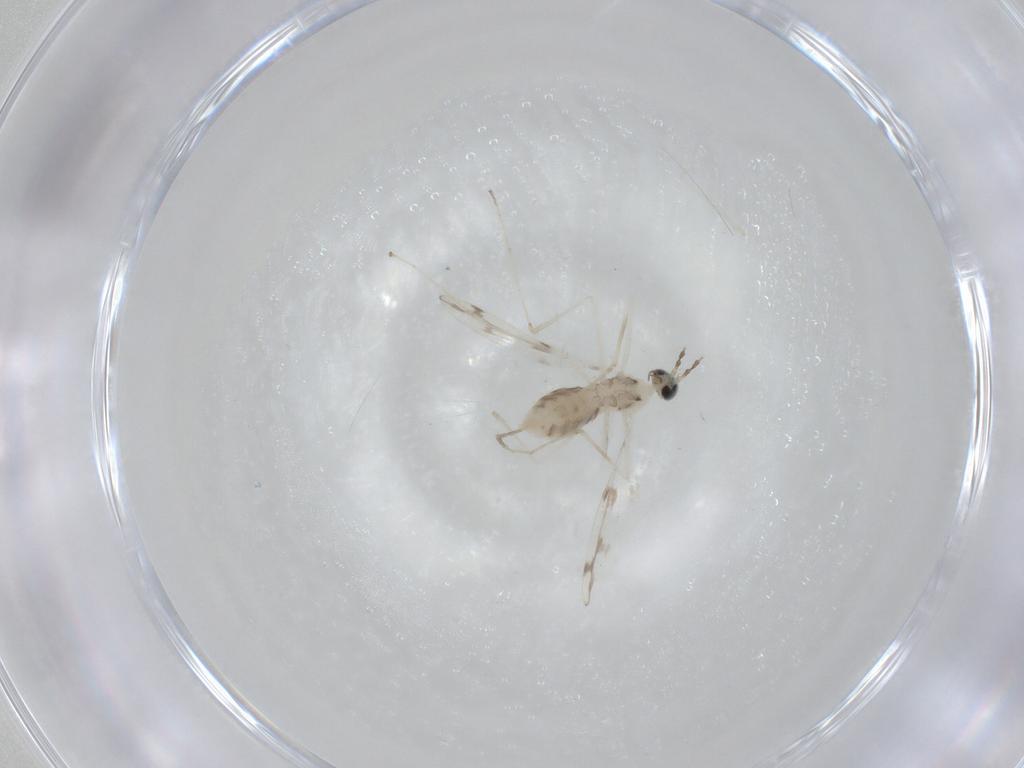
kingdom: Animalia
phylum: Arthropoda
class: Insecta
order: Diptera
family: Cecidomyiidae
